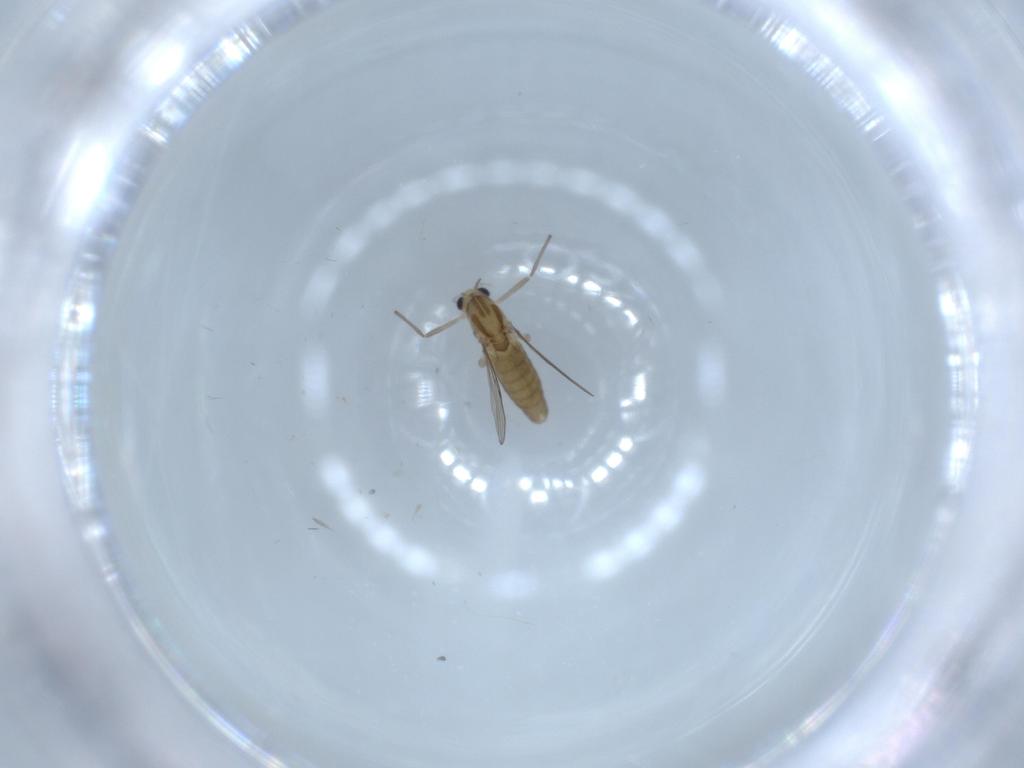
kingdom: Animalia
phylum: Arthropoda
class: Insecta
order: Diptera
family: Chironomidae
